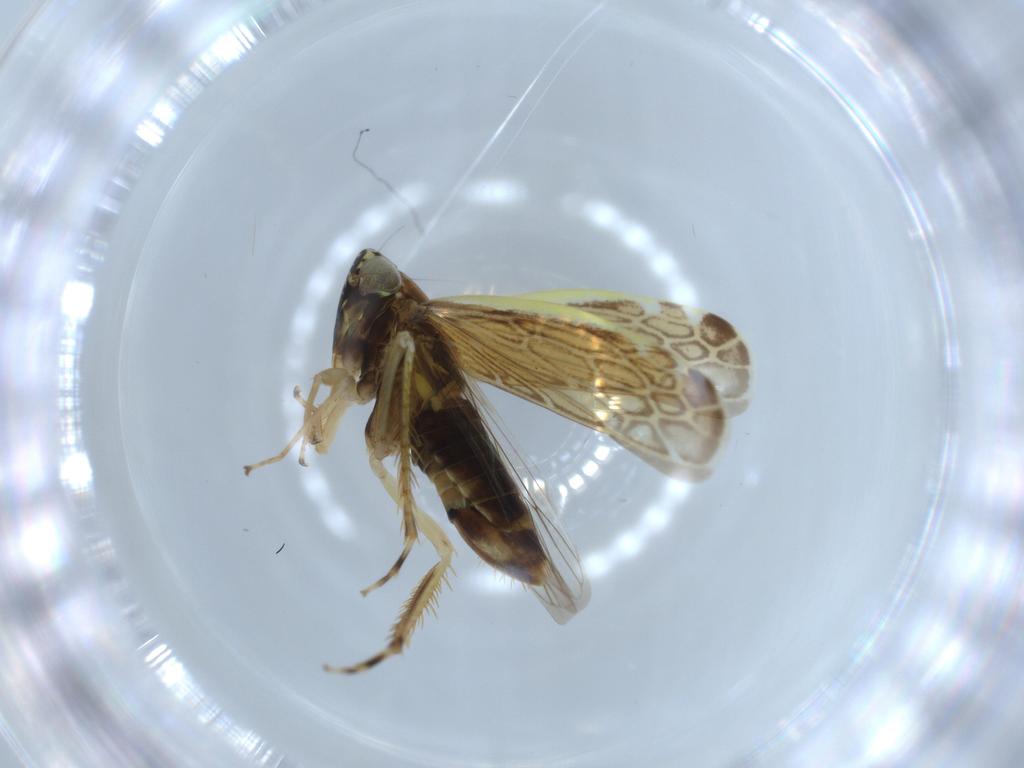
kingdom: Animalia
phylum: Arthropoda
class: Insecta
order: Hemiptera
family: Cicadellidae
